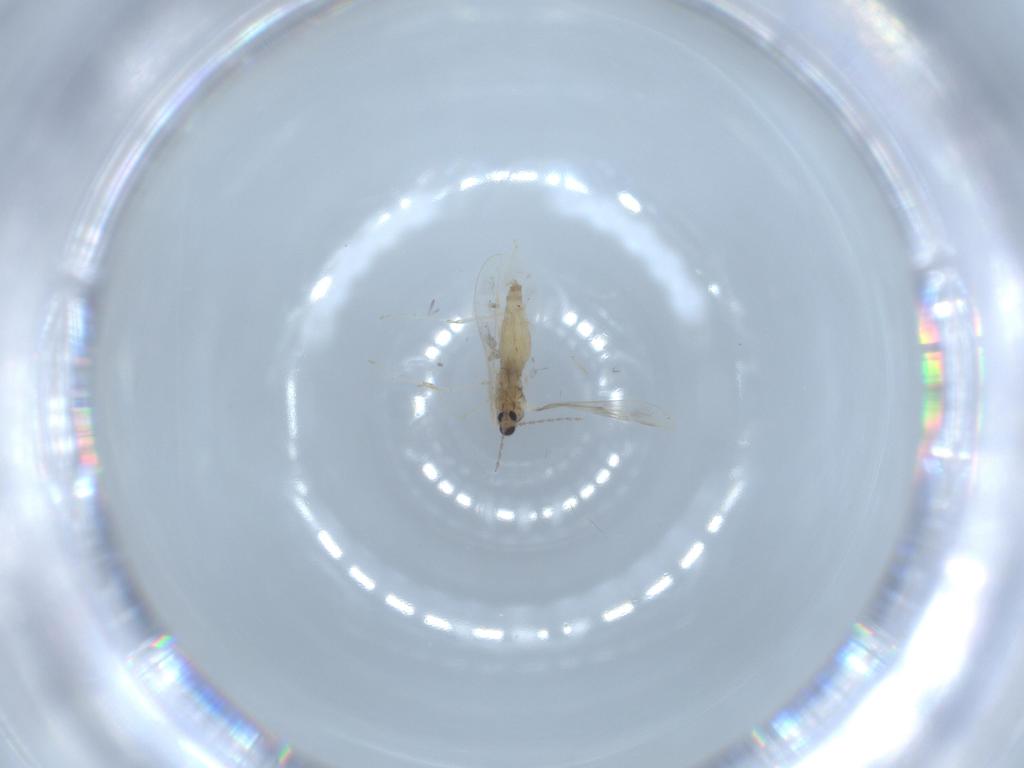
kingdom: Animalia
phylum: Arthropoda
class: Insecta
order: Diptera
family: Cecidomyiidae
